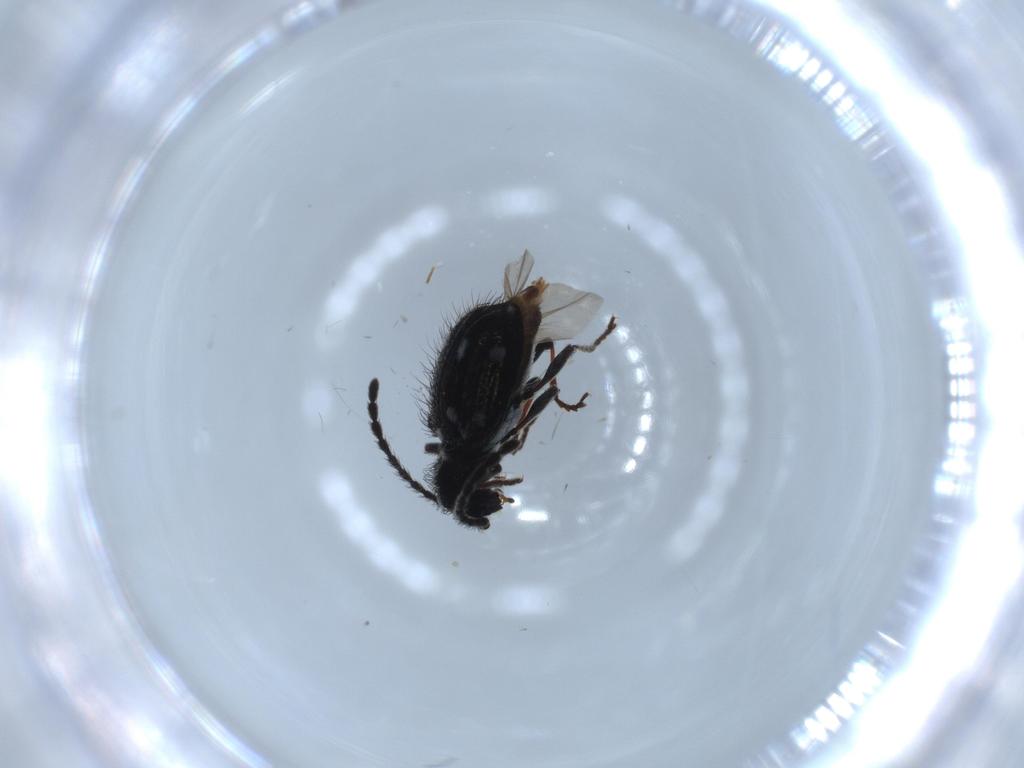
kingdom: Animalia
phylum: Arthropoda
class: Insecta
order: Coleoptera
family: Ptinidae
